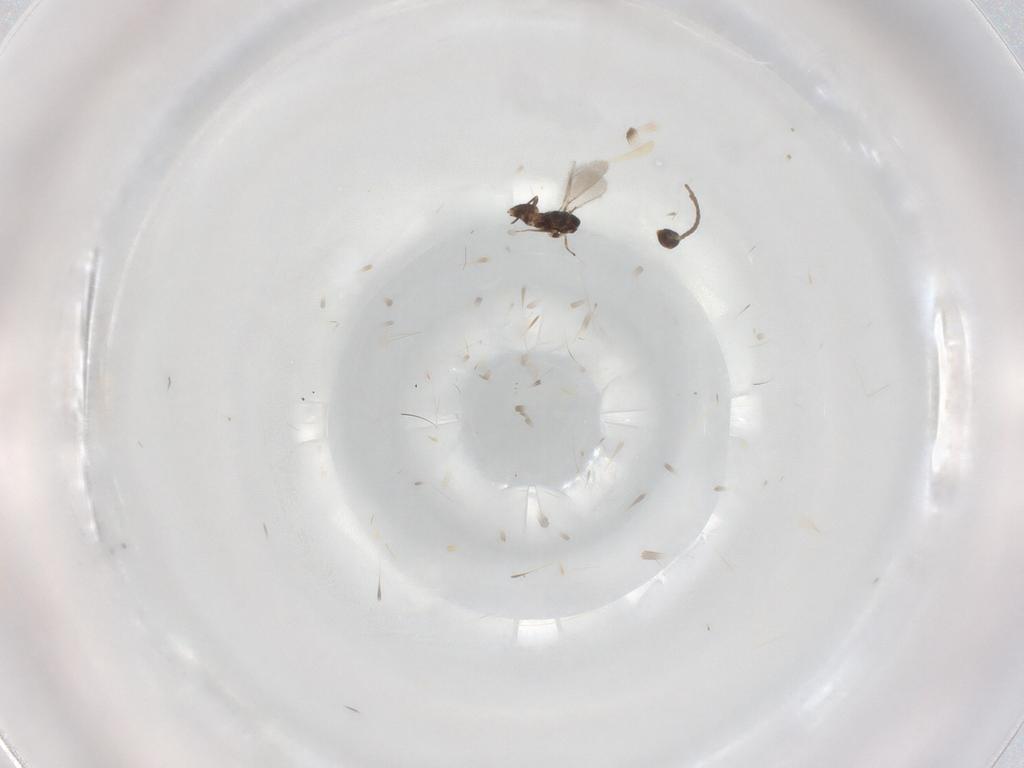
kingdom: Animalia
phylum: Arthropoda
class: Insecta
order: Hymenoptera
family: Mymaridae
